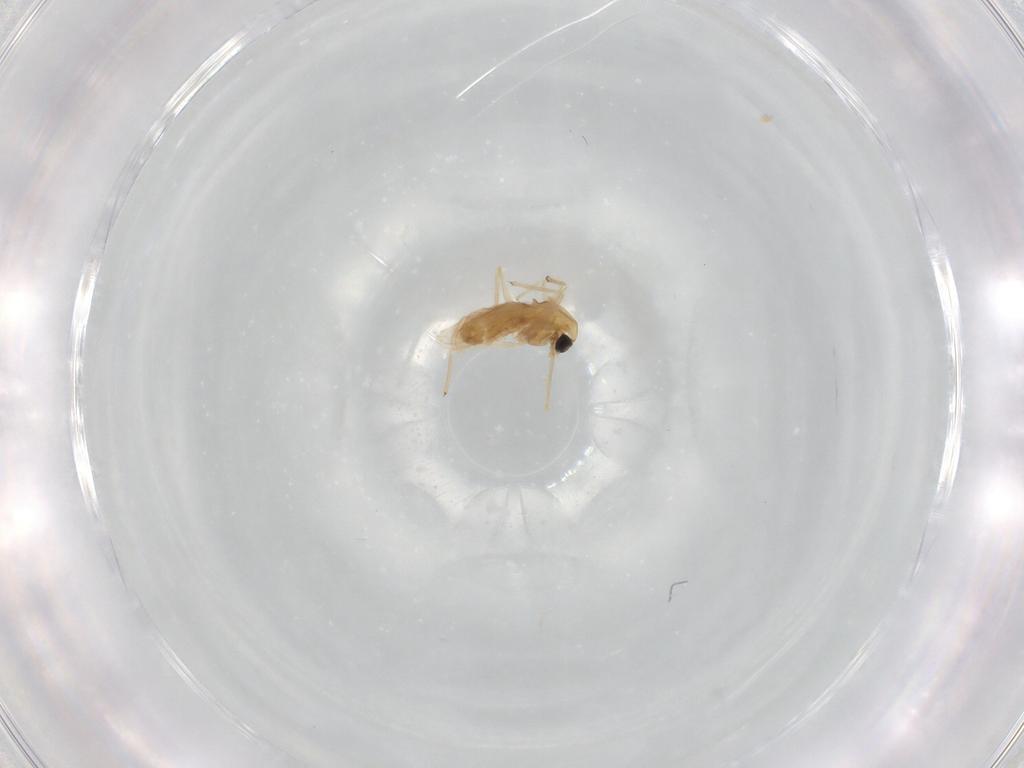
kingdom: Animalia
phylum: Arthropoda
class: Insecta
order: Diptera
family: Chironomidae
